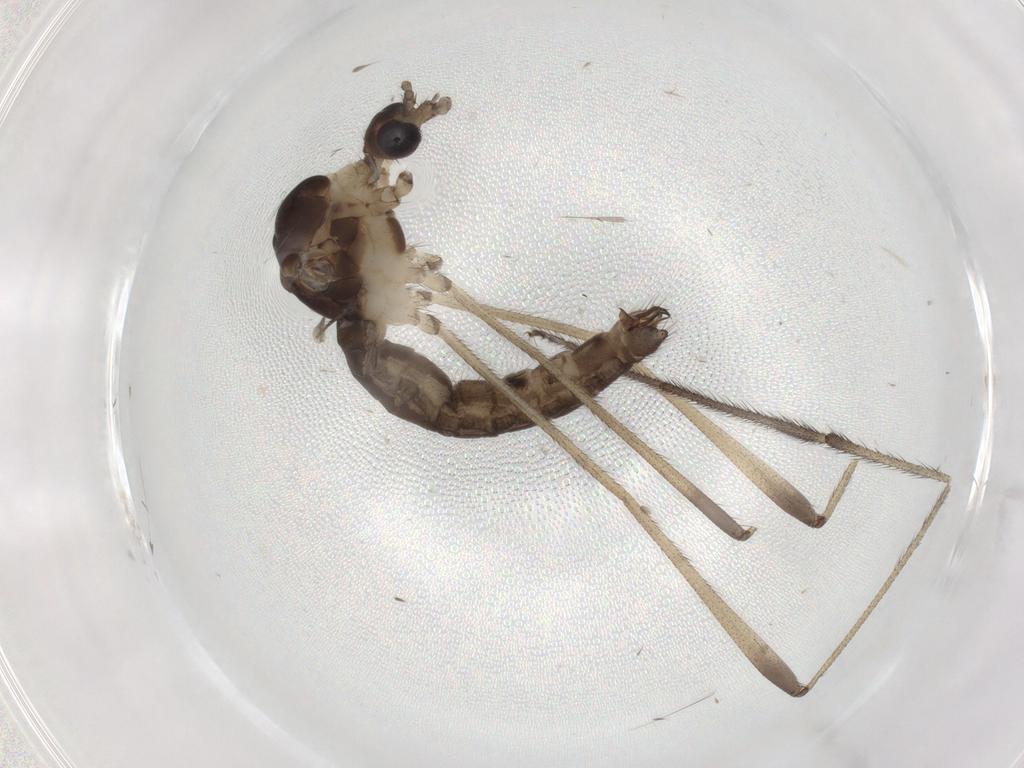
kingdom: Animalia
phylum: Arthropoda
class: Insecta
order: Diptera
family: Limoniidae
